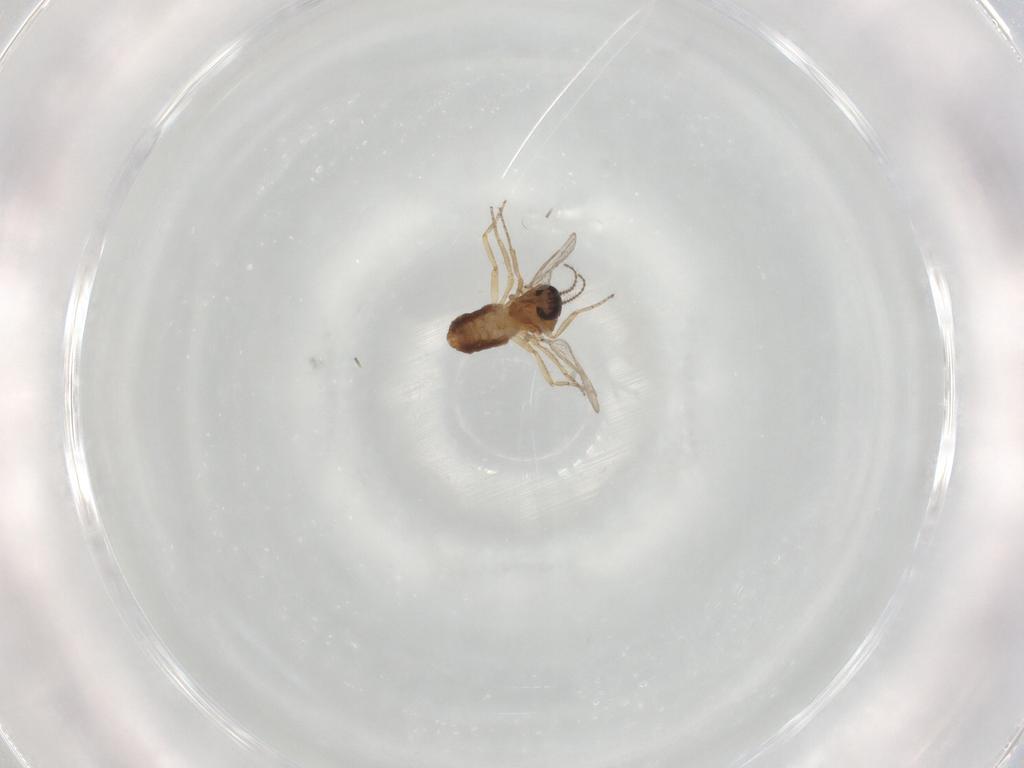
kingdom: Animalia
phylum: Arthropoda
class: Insecta
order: Diptera
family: Ceratopogonidae
